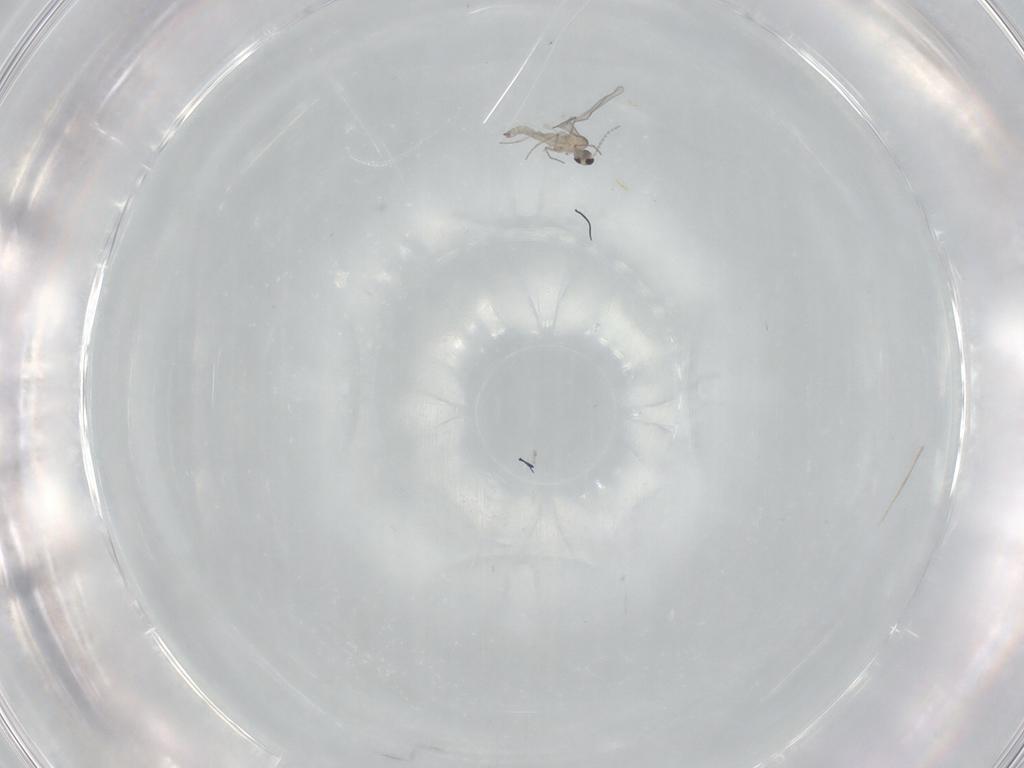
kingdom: Animalia
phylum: Arthropoda
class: Insecta
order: Diptera
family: Cecidomyiidae
